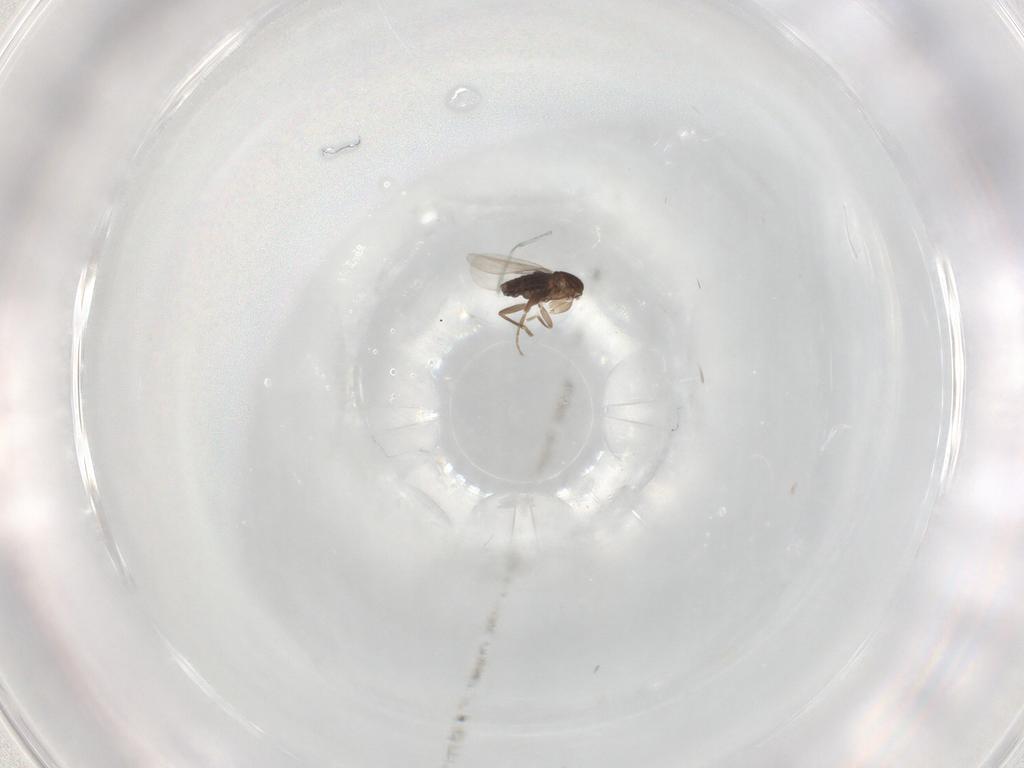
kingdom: Animalia
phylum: Arthropoda
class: Insecta
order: Diptera
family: Phoridae
